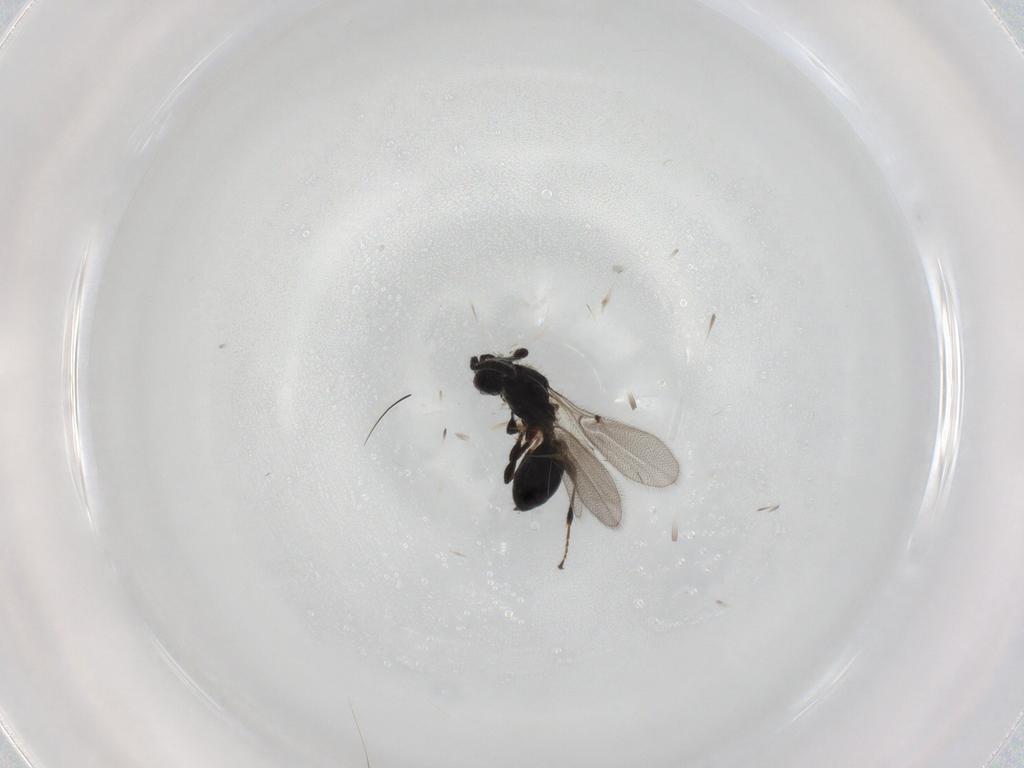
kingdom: Animalia
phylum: Arthropoda
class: Insecta
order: Hymenoptera
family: Diapriidae
